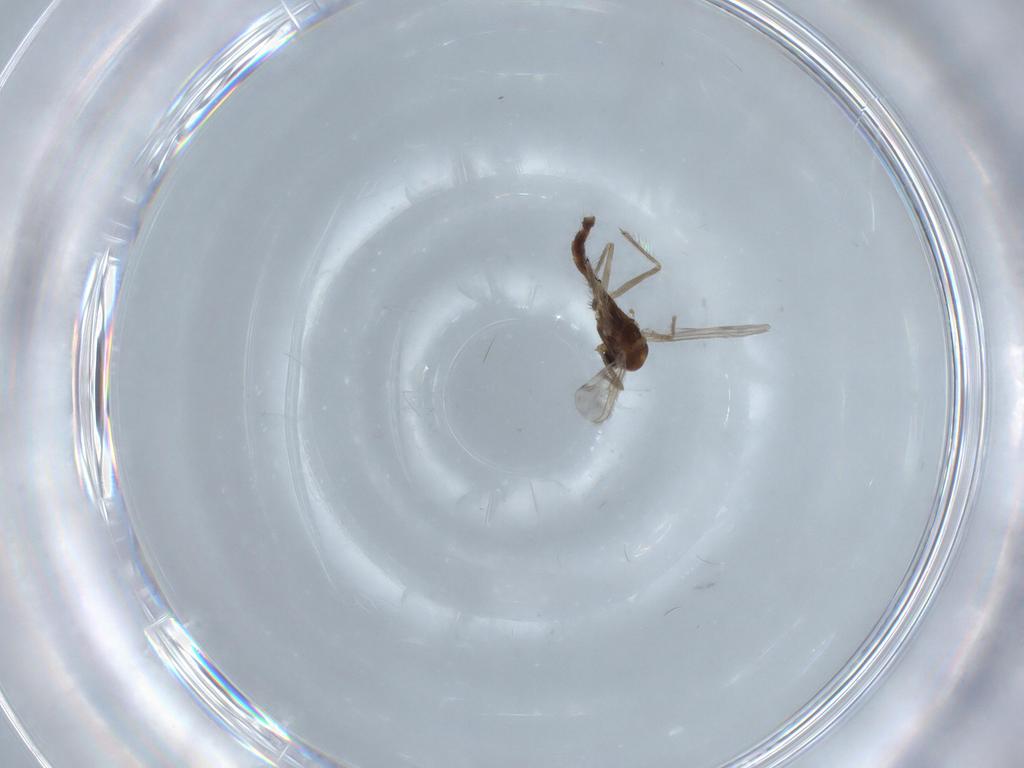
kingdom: Animalia
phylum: Arthropoda
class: Insecta
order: Diptera
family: Mycetophilidae
